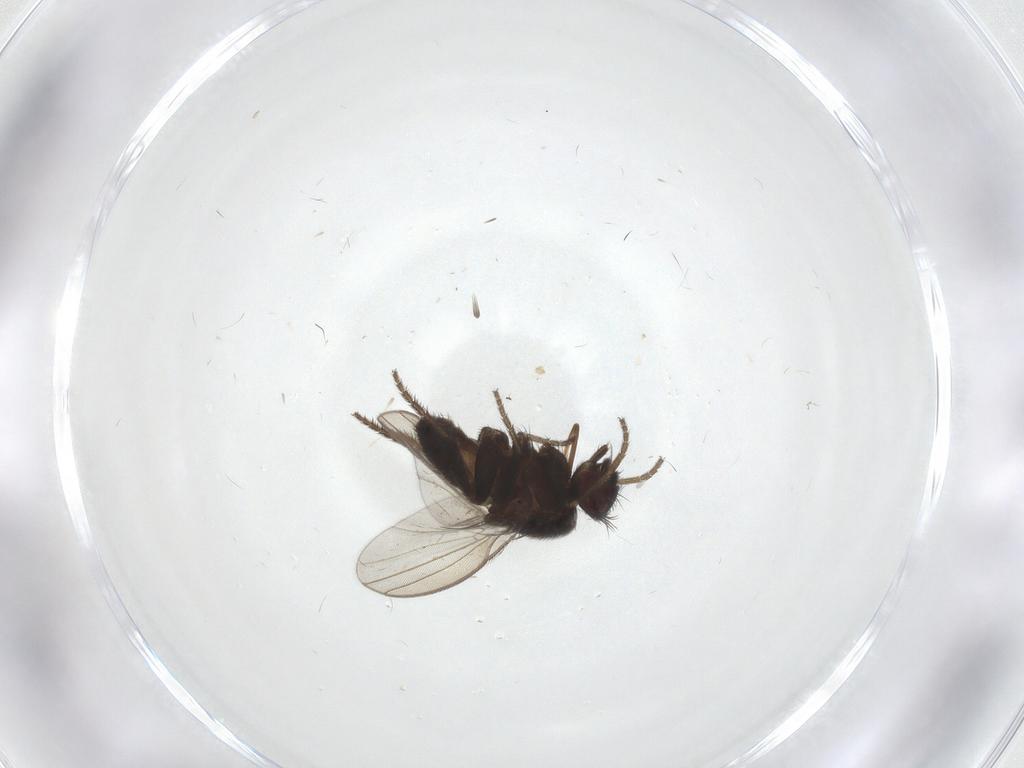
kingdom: Animalia
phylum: Arthropoda
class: Insecta
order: Diptera
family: Milichiidae
